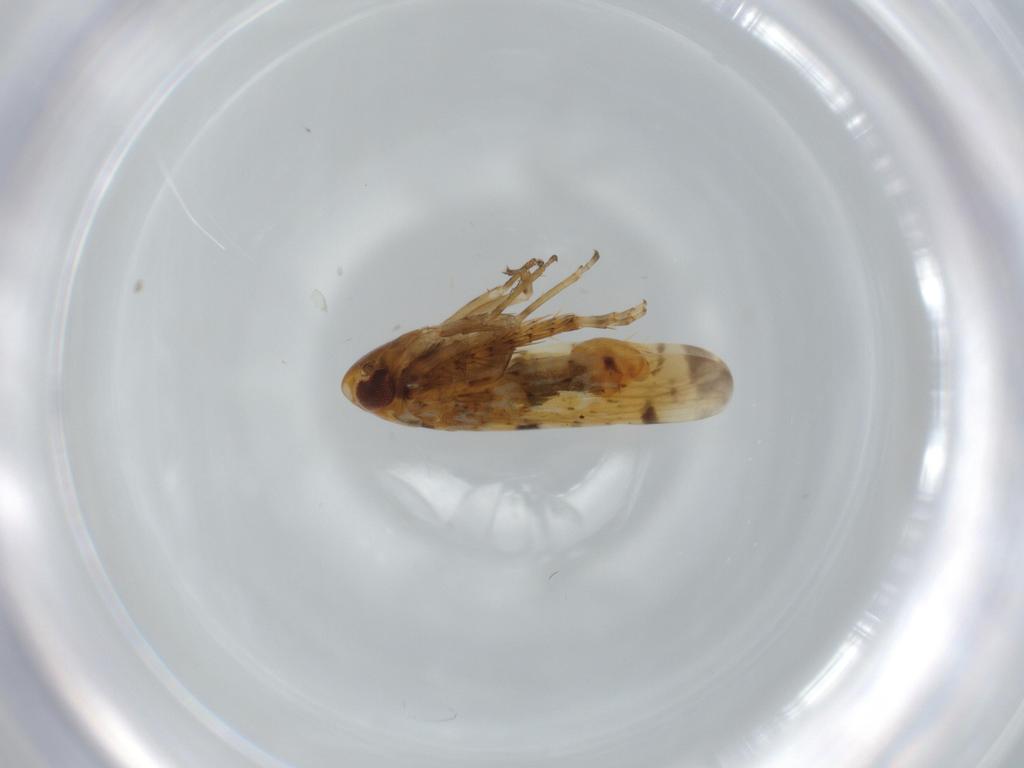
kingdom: Animalia
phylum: Arthropoda
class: Insecta
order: Hemiptera
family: Cicadellidae
